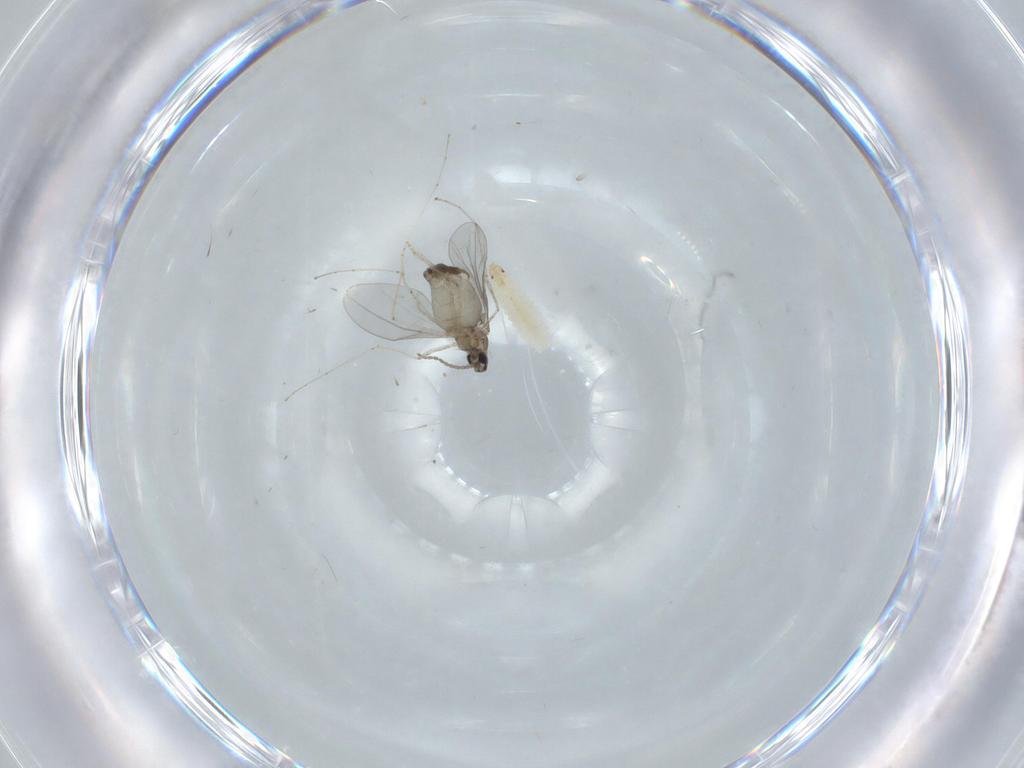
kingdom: Animalia
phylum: Arthropoda
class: Insecta
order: Diptera
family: Cecidomyiidae
